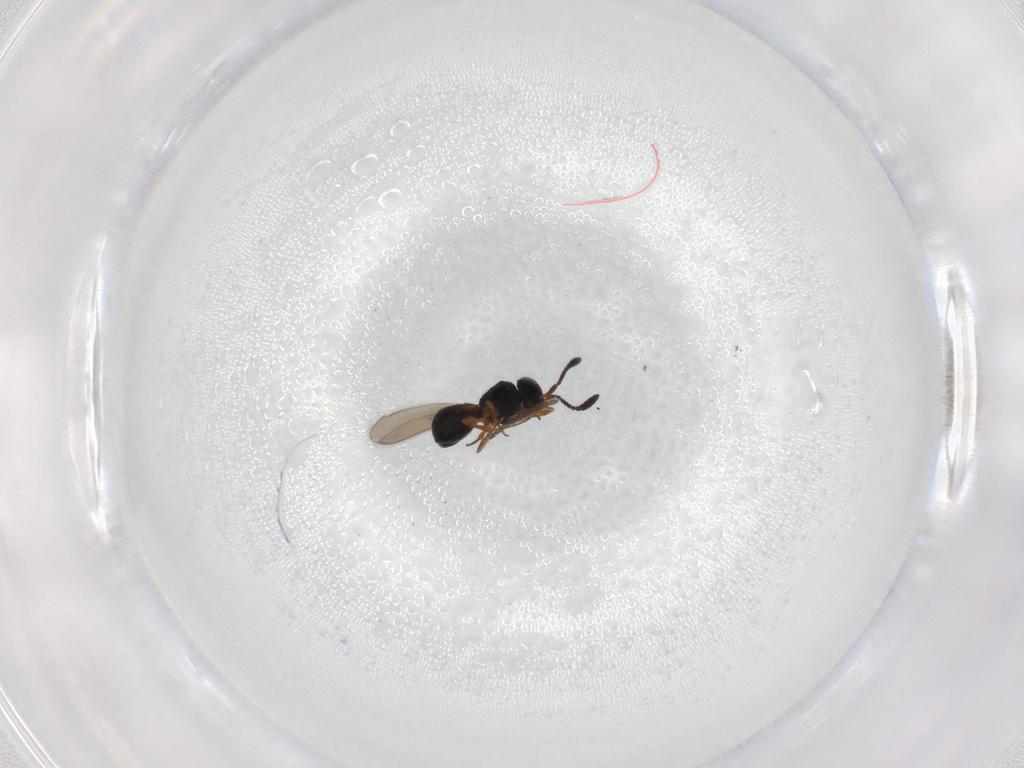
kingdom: Animalia
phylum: Arthropoda
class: Insecta
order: Hymenoptera
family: Scelionidae
